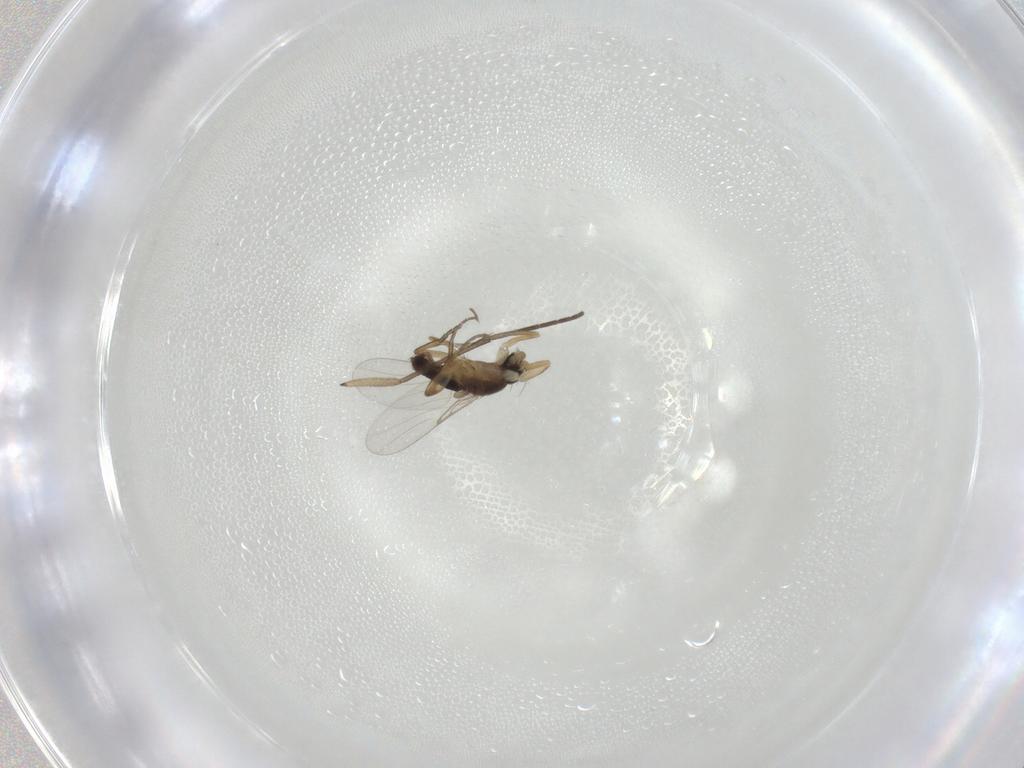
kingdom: Animalia
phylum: Arthropoda
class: Insecta
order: Diptera
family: Phoridae
